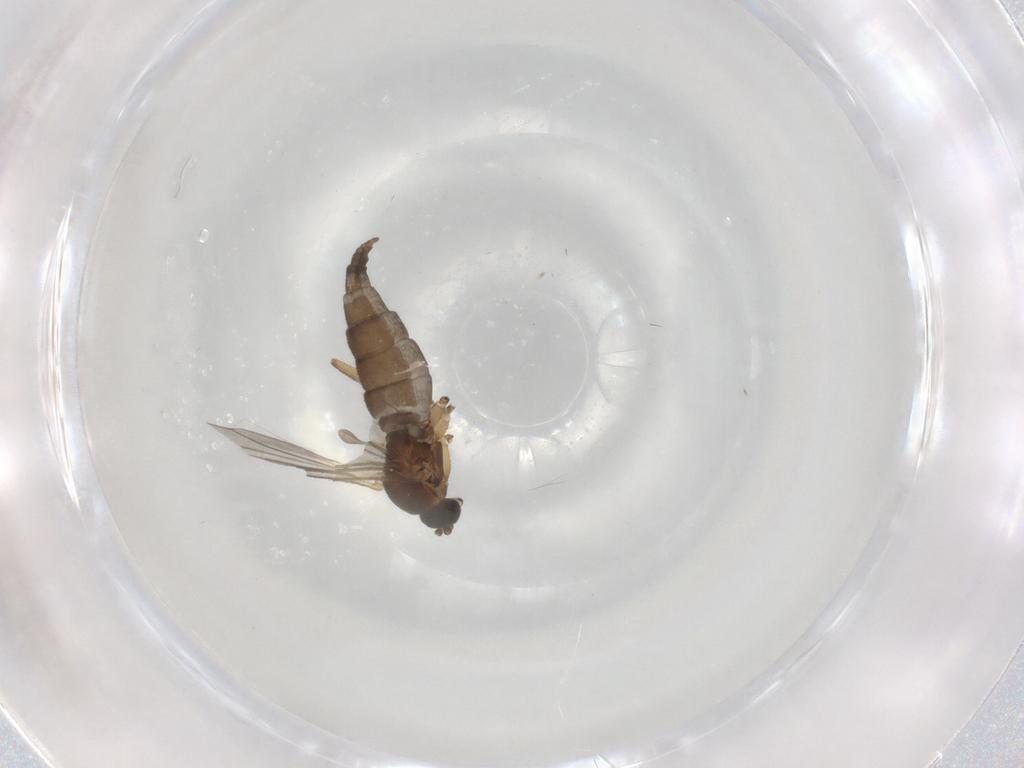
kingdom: Animalia
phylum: Arthropoda
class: Insecta
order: Diptera
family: Sciaridae
